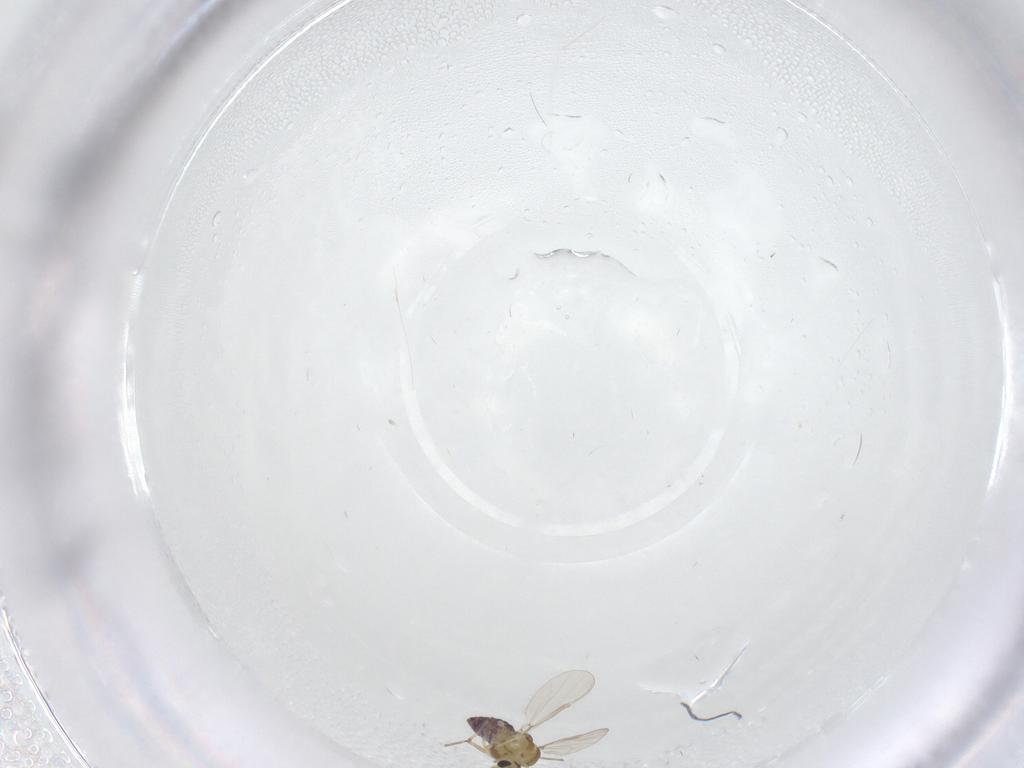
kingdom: Animalia
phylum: Arthropoda
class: Insecta
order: Diptera
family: Chironomidae
